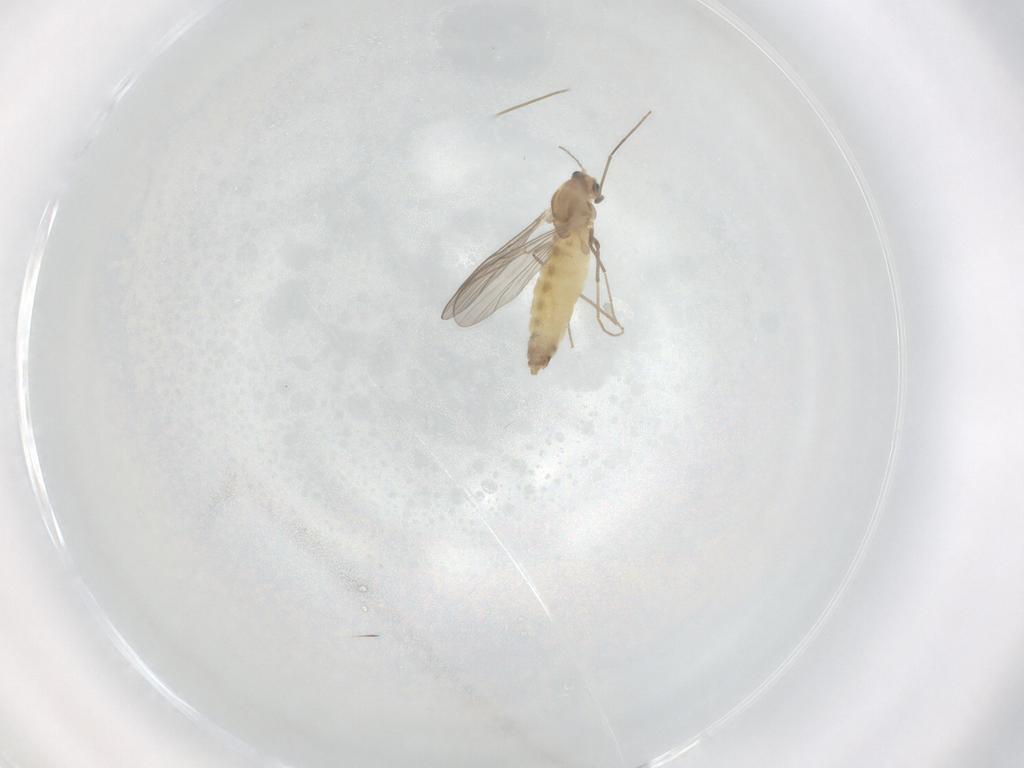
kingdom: Animalia
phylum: Arthropoda
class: Insecta
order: Diptera
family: Chironomidae
